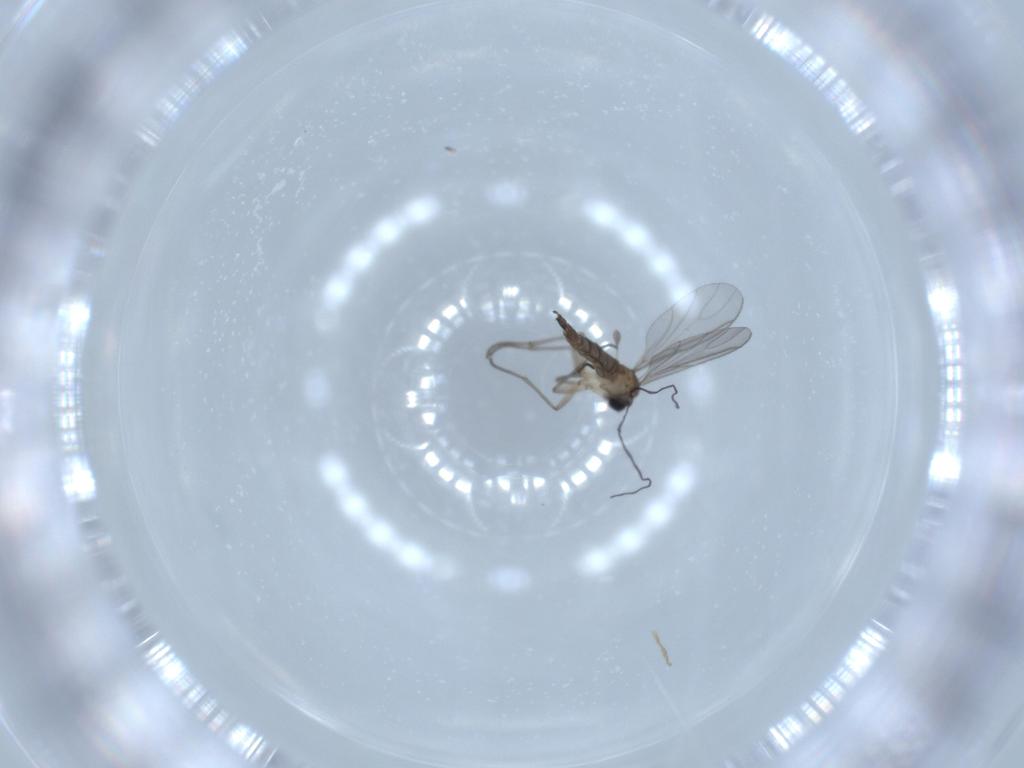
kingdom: Animalia
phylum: Arthropoda
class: Insecta
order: Diptera
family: Sciaridae
